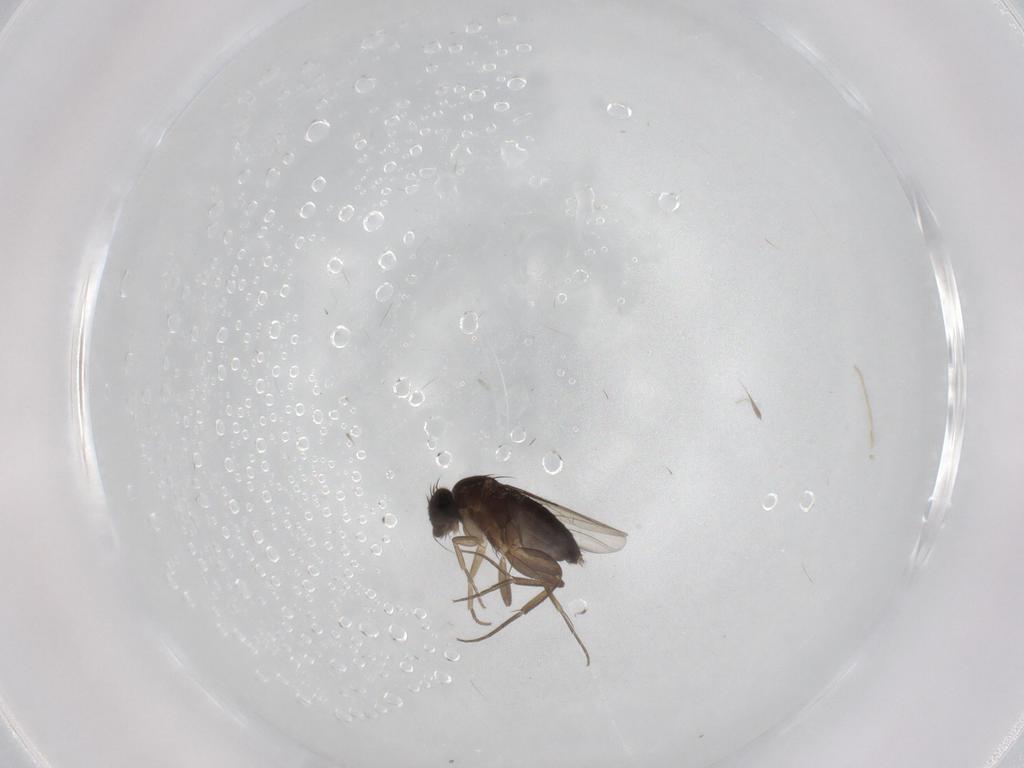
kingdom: Animalia
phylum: Arthropoda
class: Insecta
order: Diptera
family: Phoridae
